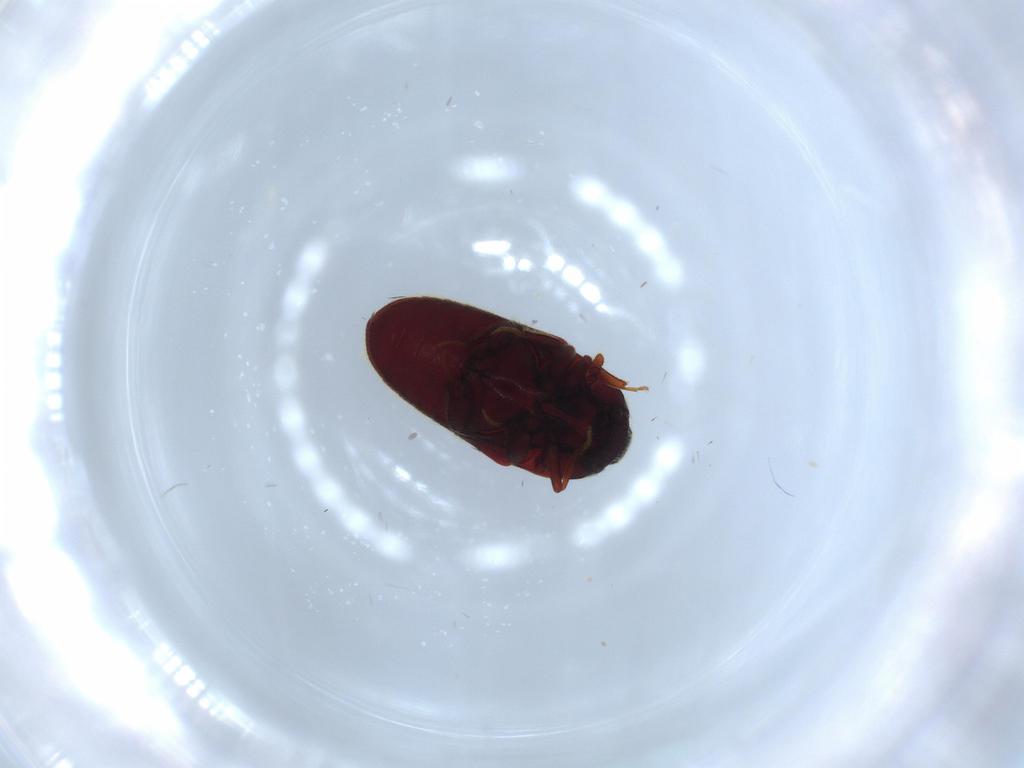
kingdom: Animalia
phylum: Arthropoda
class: Insecta
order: Coleoptera
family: Throscidae
